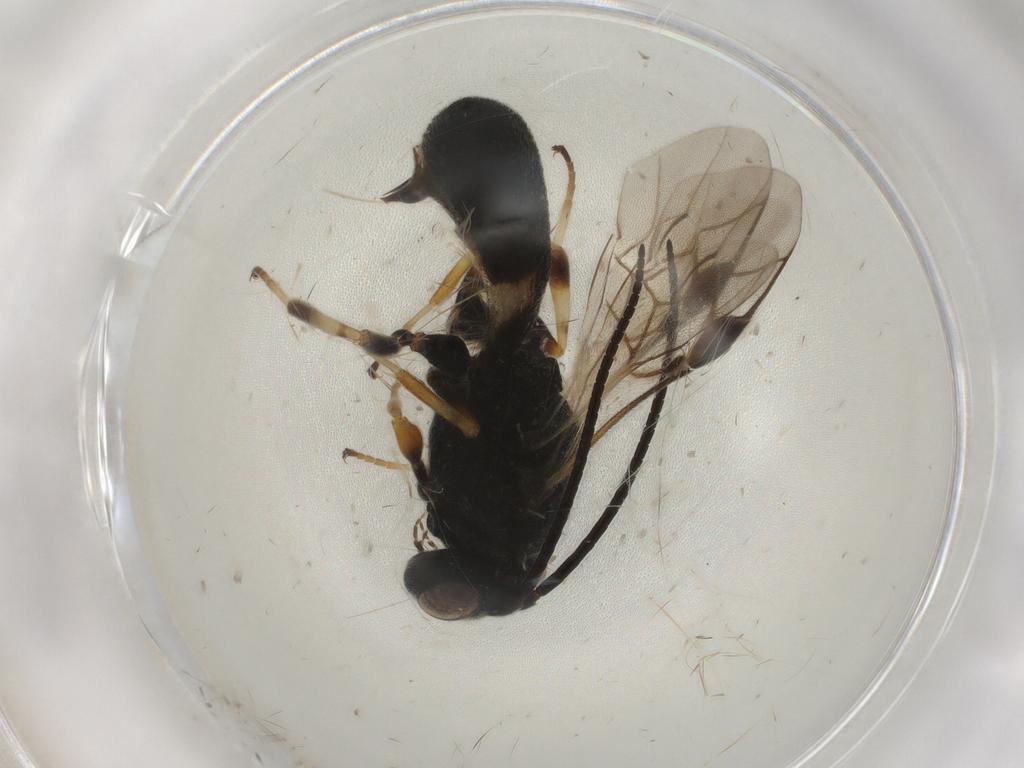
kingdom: Animalia
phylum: Arthropoda
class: Insecta
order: Hymenoptera
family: Braconidae
